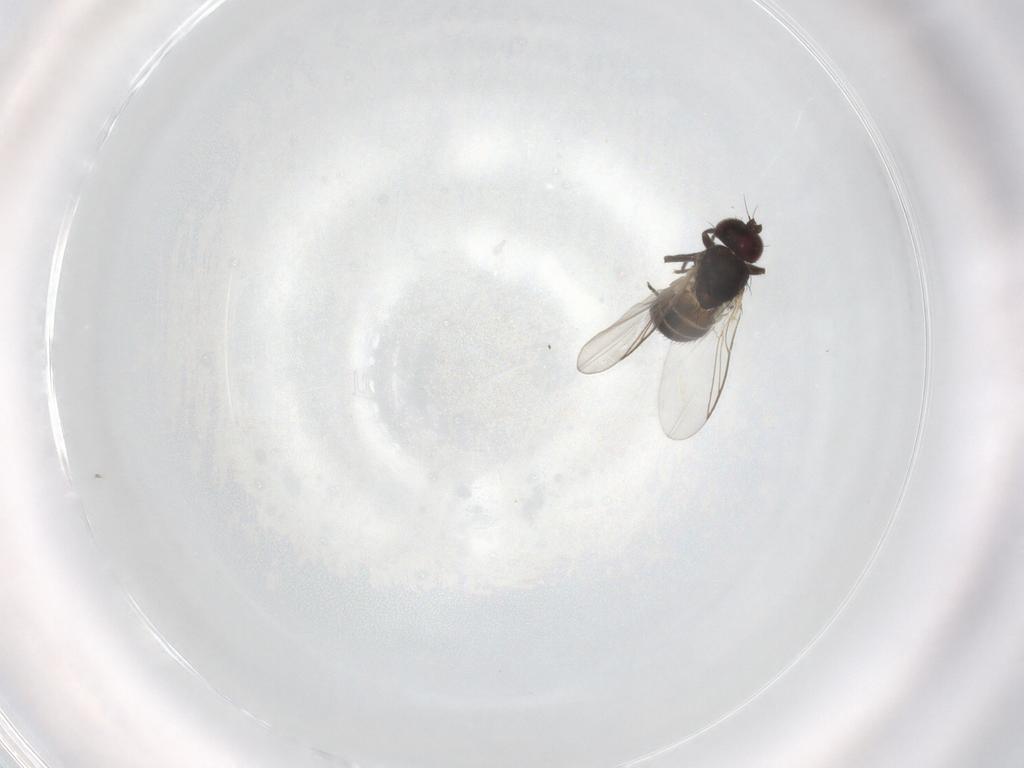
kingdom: Animalia
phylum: Arthropoda
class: Insecta
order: Diptera
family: Agromyzidae
